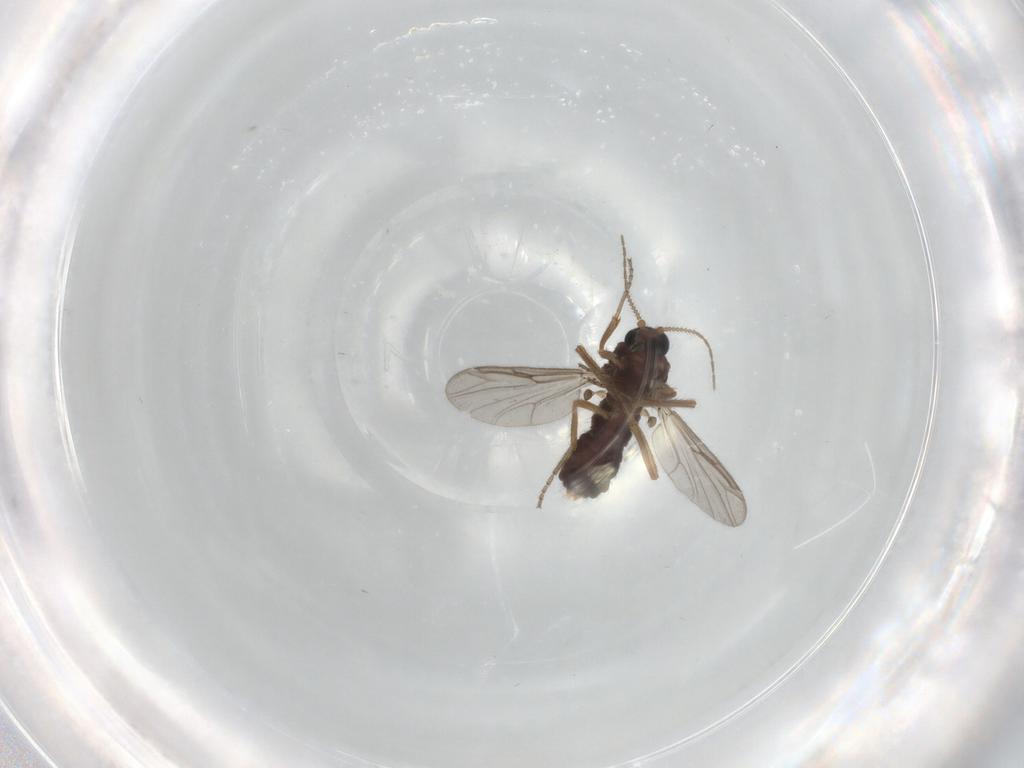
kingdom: Animalia
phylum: Arthropoda
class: Insecta
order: Diptera
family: Ceratopogonidae
